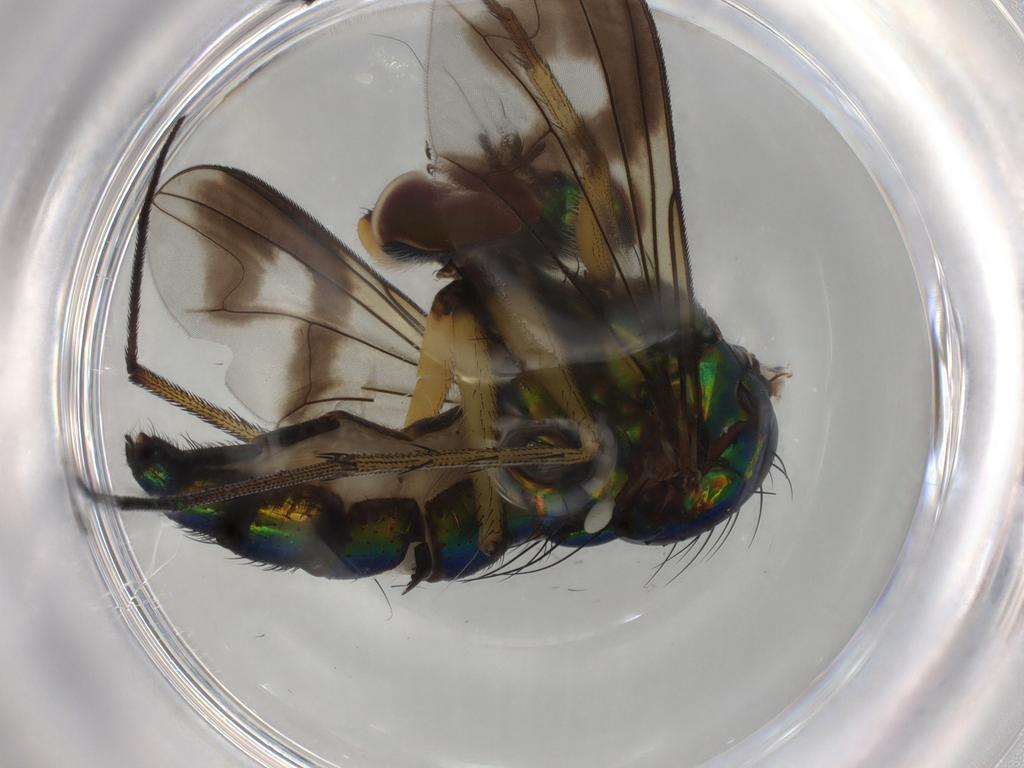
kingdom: Animalia
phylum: Arthropoda
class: Insecta
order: Diptera
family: Dolichopodidae
